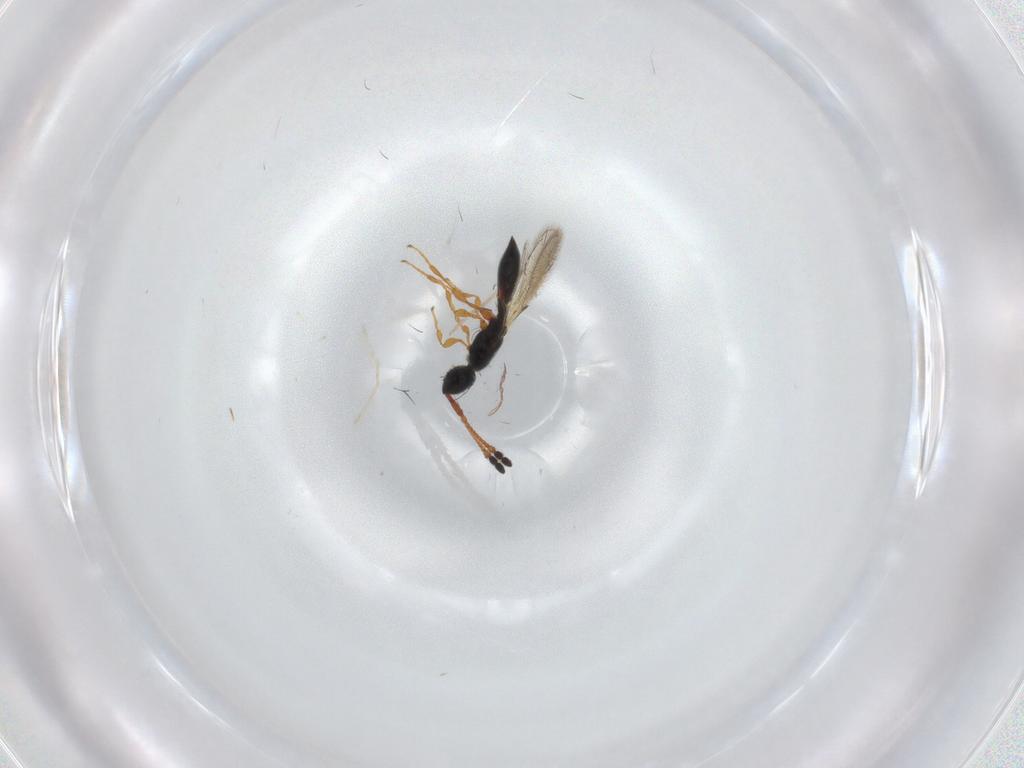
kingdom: Animalia
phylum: Arthropoda
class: Insecta
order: Hymenoptera
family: Diapriidae
